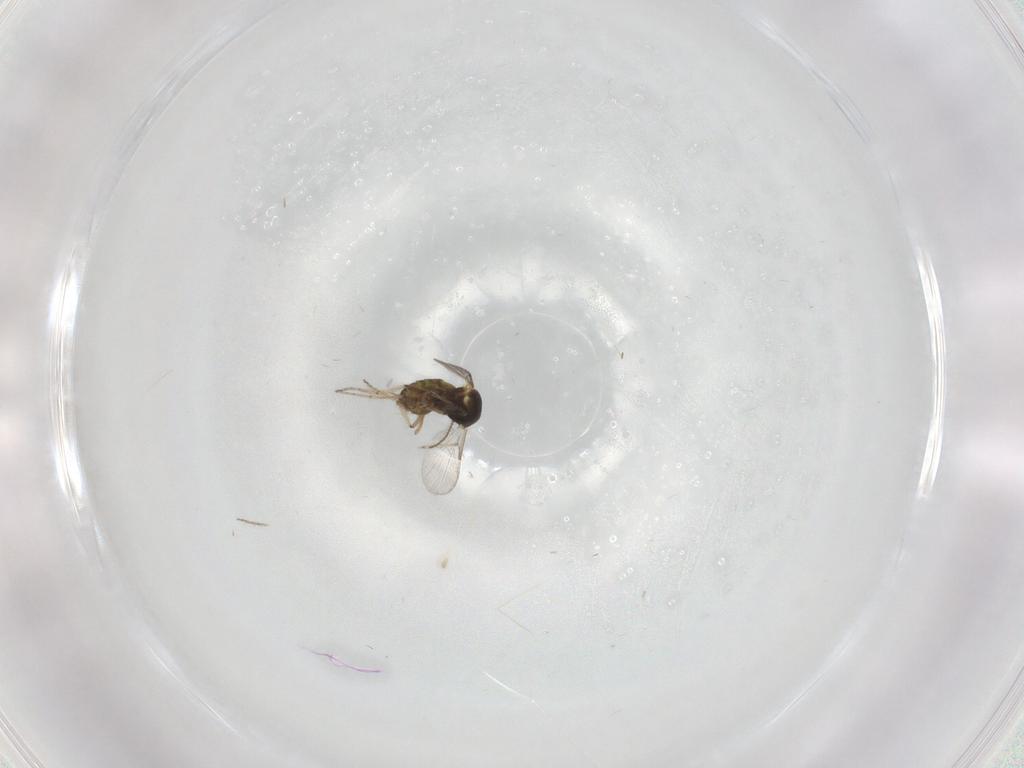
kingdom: Animalia
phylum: Arthropoda
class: Insecta
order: Diptera
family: Ceratopogonidae
